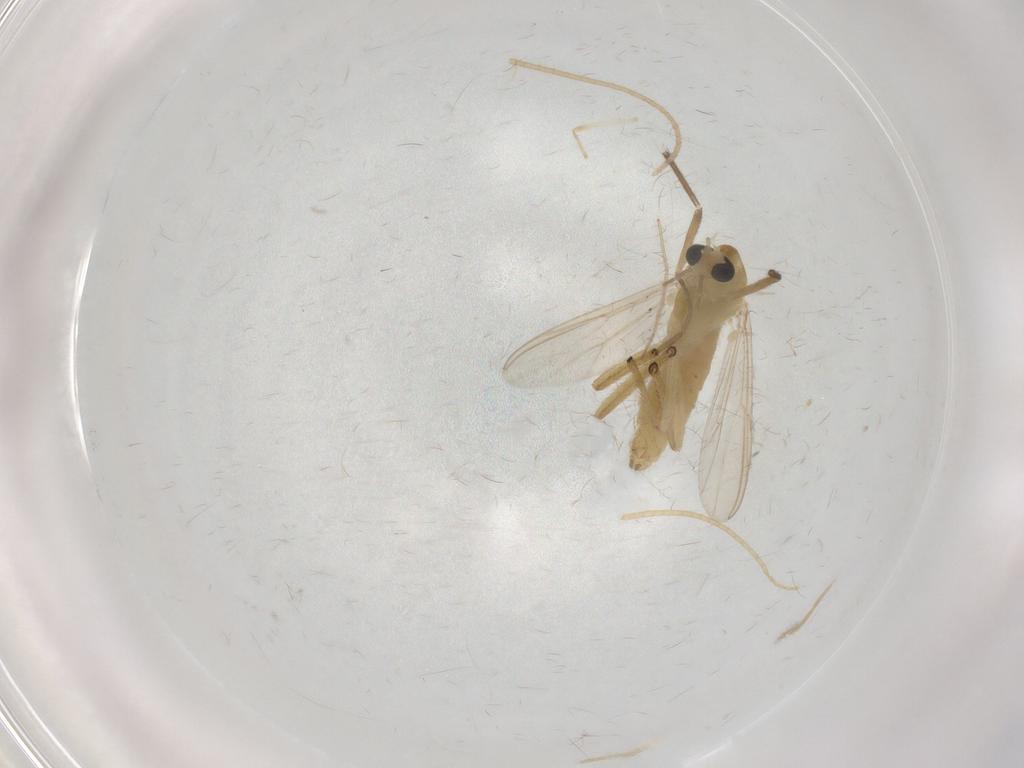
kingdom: Animalia
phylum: Arthropoda
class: Insecta
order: Diptera
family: Chironomidae
